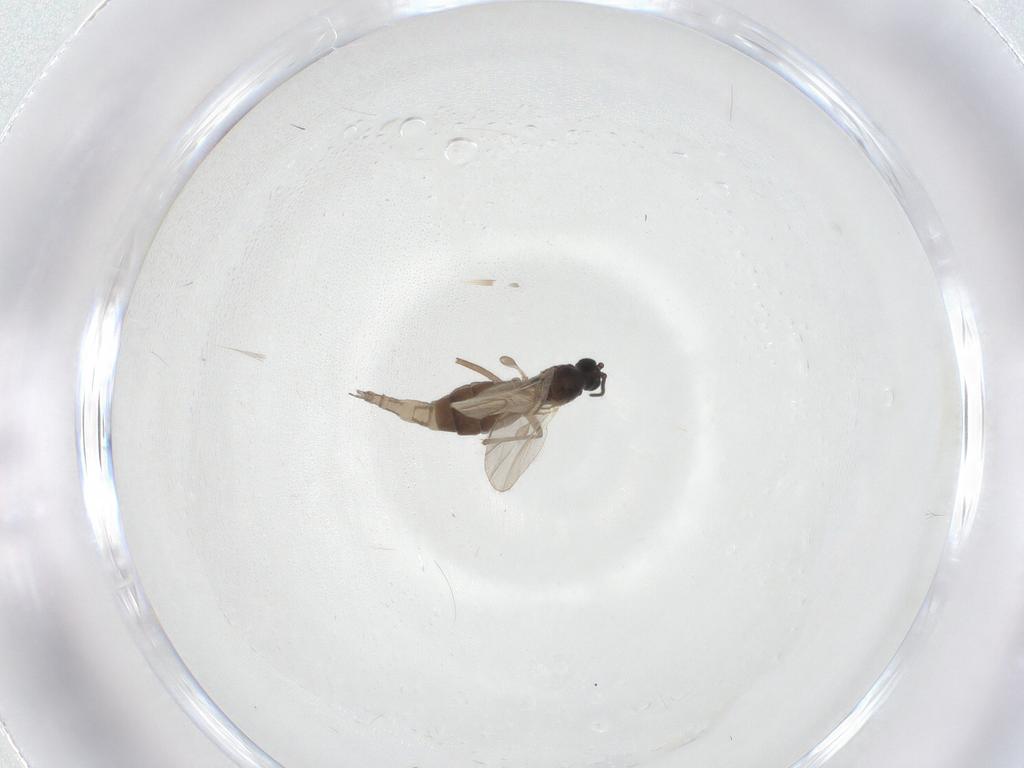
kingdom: Animalia
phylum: Arthropoda
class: Insecta
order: Diptera
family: Sciaridae
